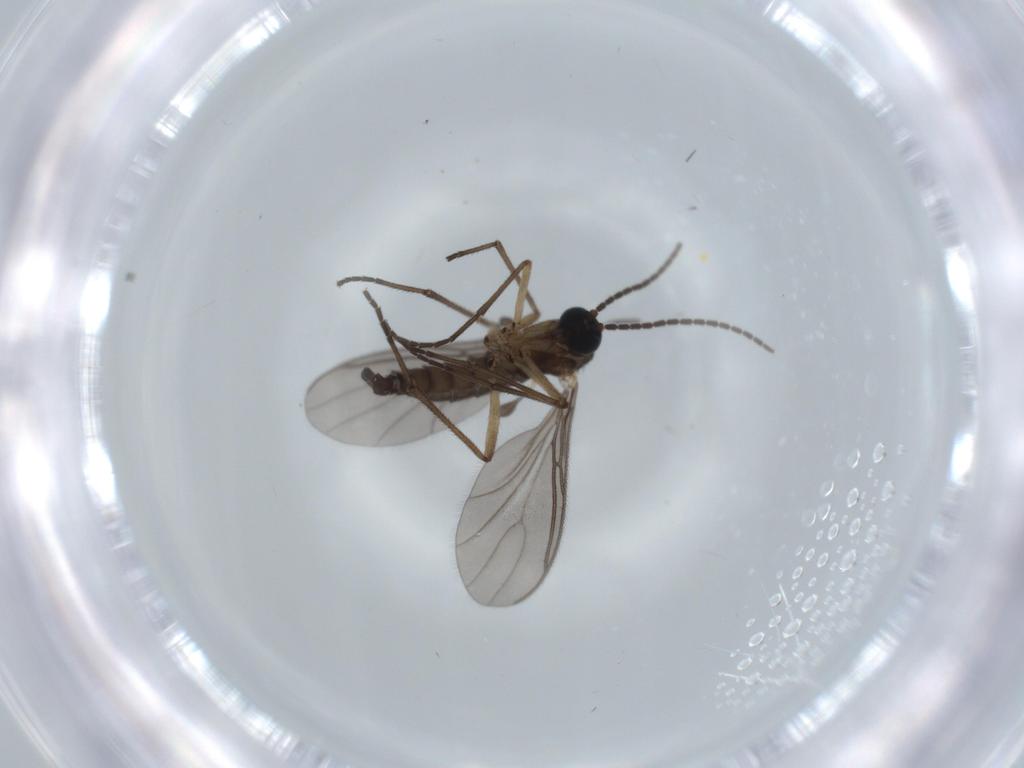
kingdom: Animalia
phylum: Arthropoda
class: Insecta
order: Diptera
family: Sciaridae
